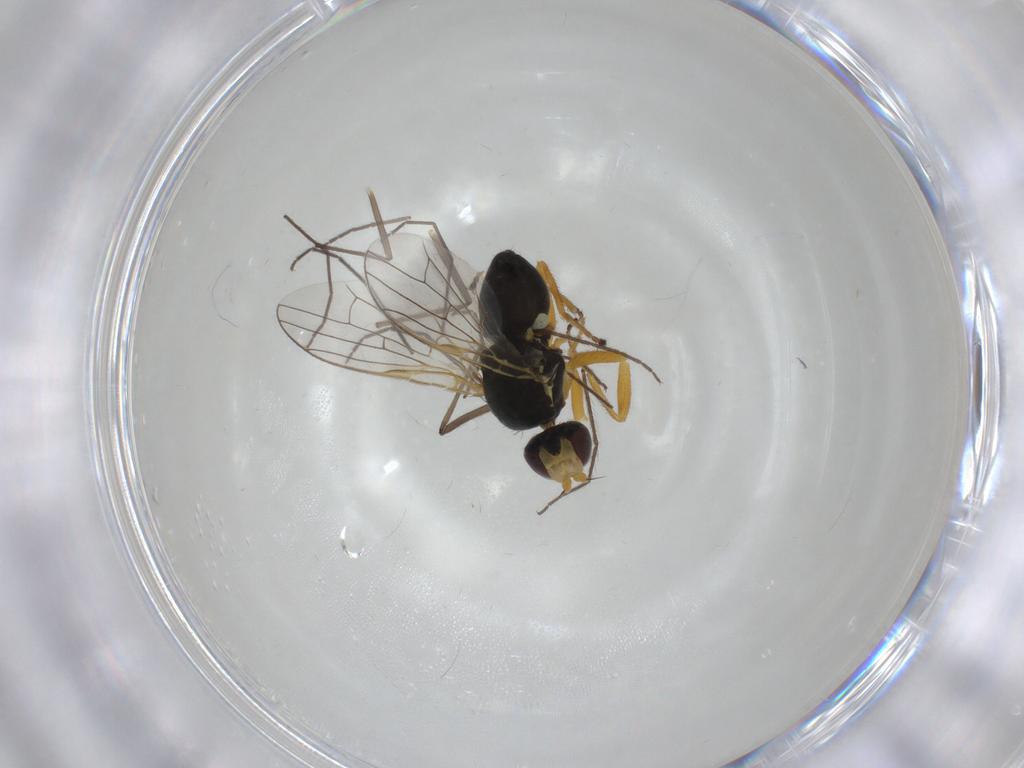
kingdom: Animalia
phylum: Arthropoda
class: Insecta
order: Diptera
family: Tephritidae
